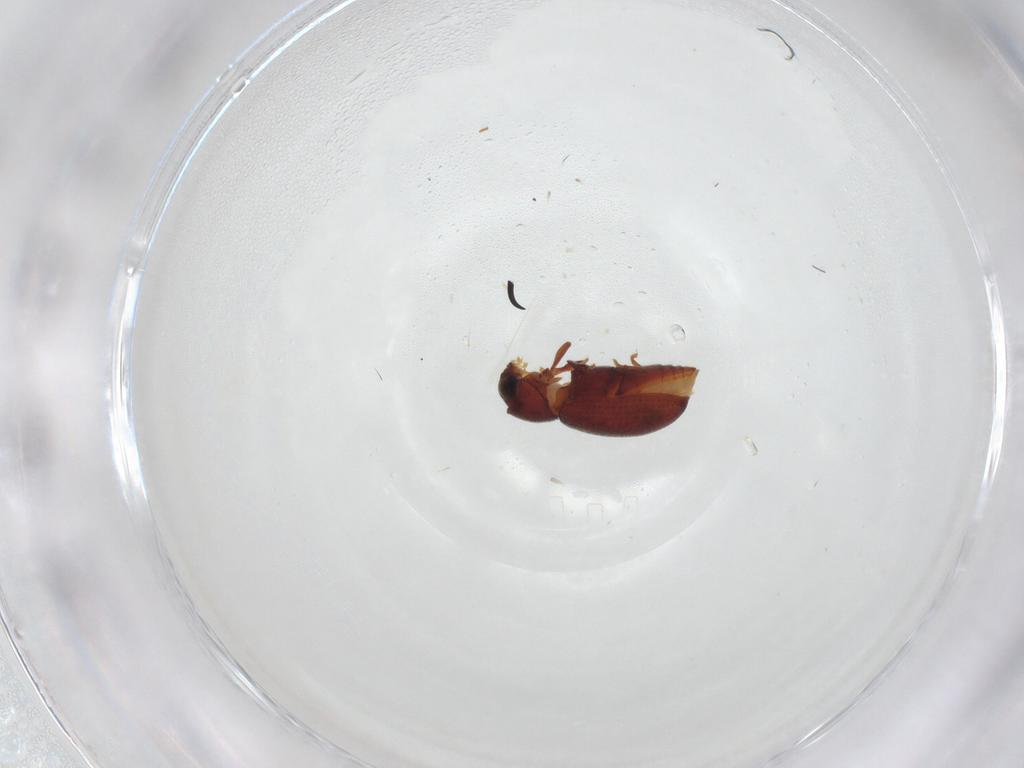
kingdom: Animalia
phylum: Arthropoda
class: Insecta
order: Coleoptera
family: Ptinidae
